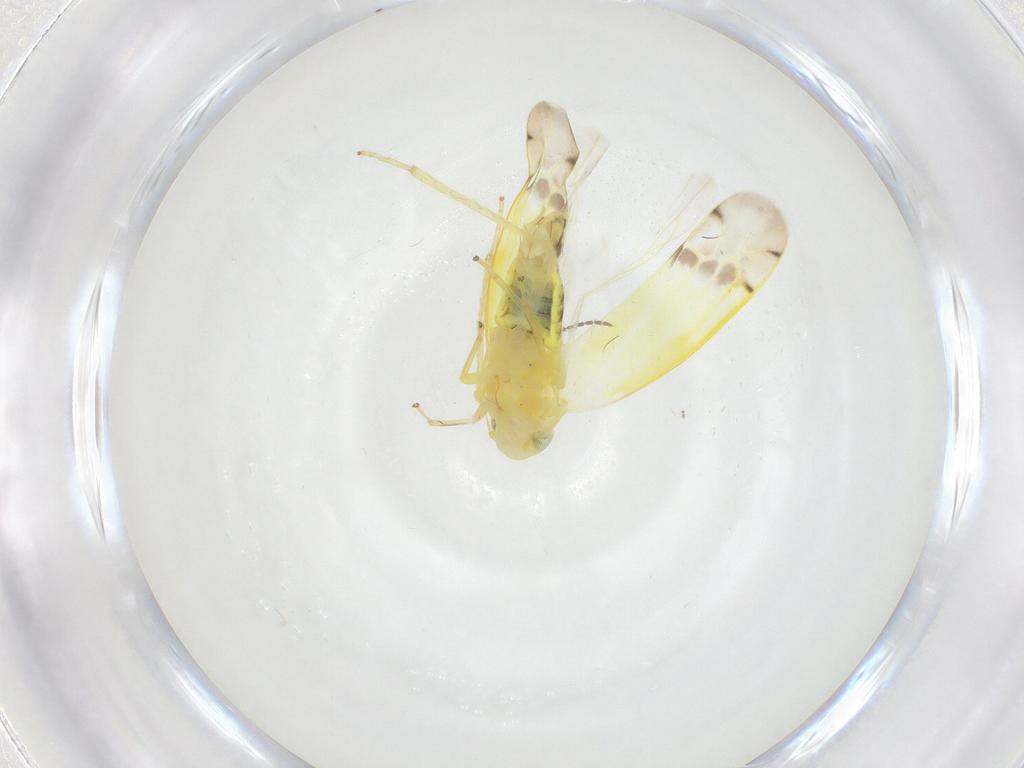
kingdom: Animalia
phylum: Arthropoda
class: Insecta
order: Hemiptera
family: Cicadellidae
